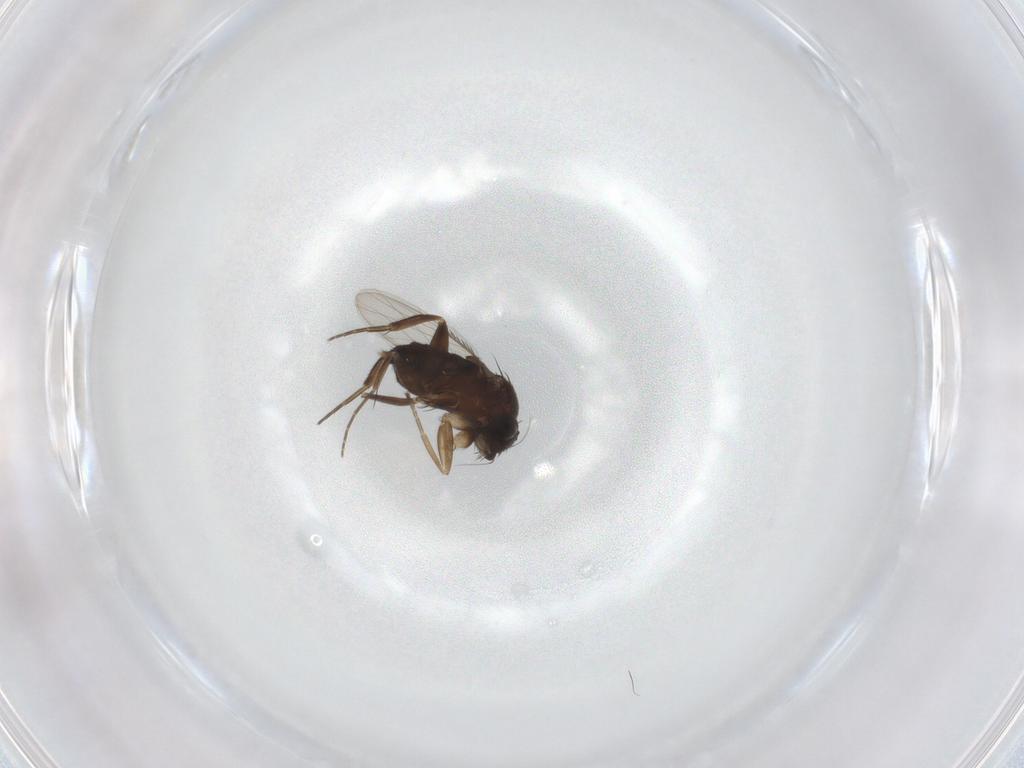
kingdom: Animalia
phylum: Arthropoda
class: Insecta
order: Diptera
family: Phoridae
